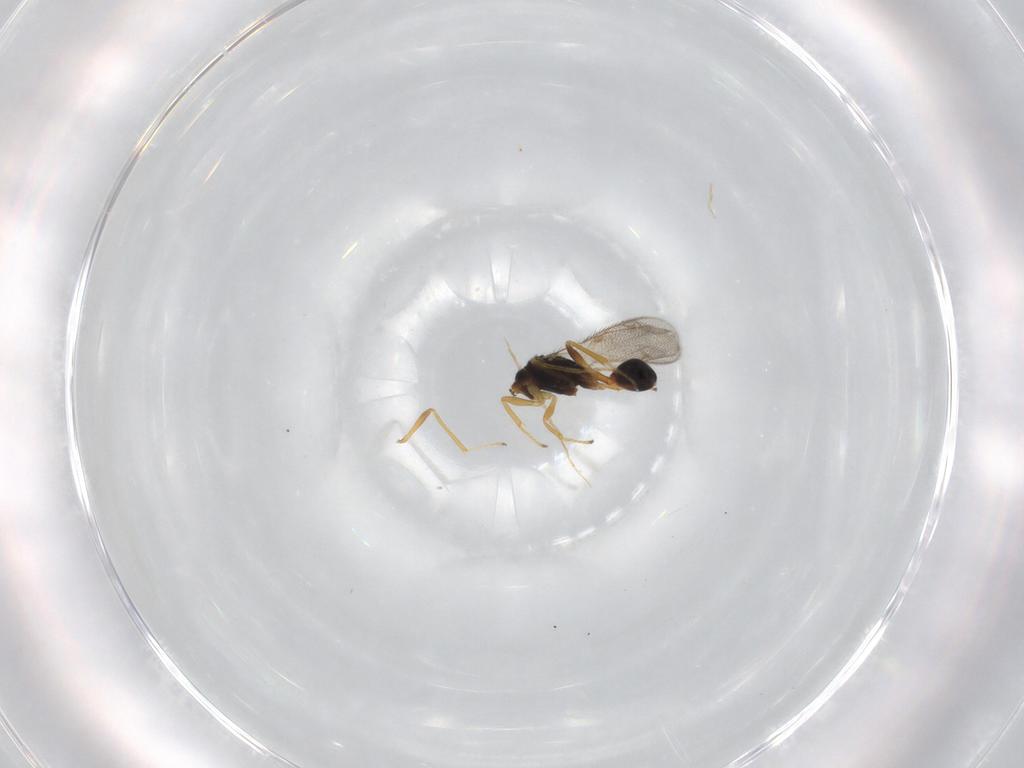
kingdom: Animalia
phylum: Arthropoda
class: Insecta
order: Hymenoptera
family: Diparidae
